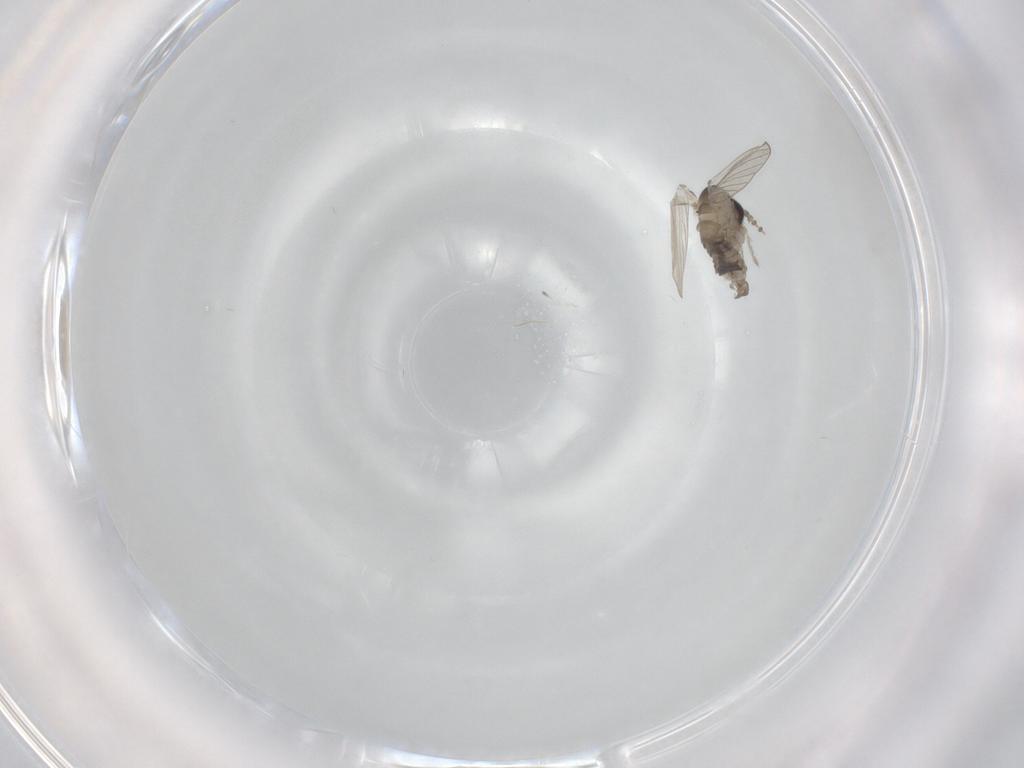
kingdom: Animalia
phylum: Arthropoda
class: Insecta
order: Diptera
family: Psychodidae
